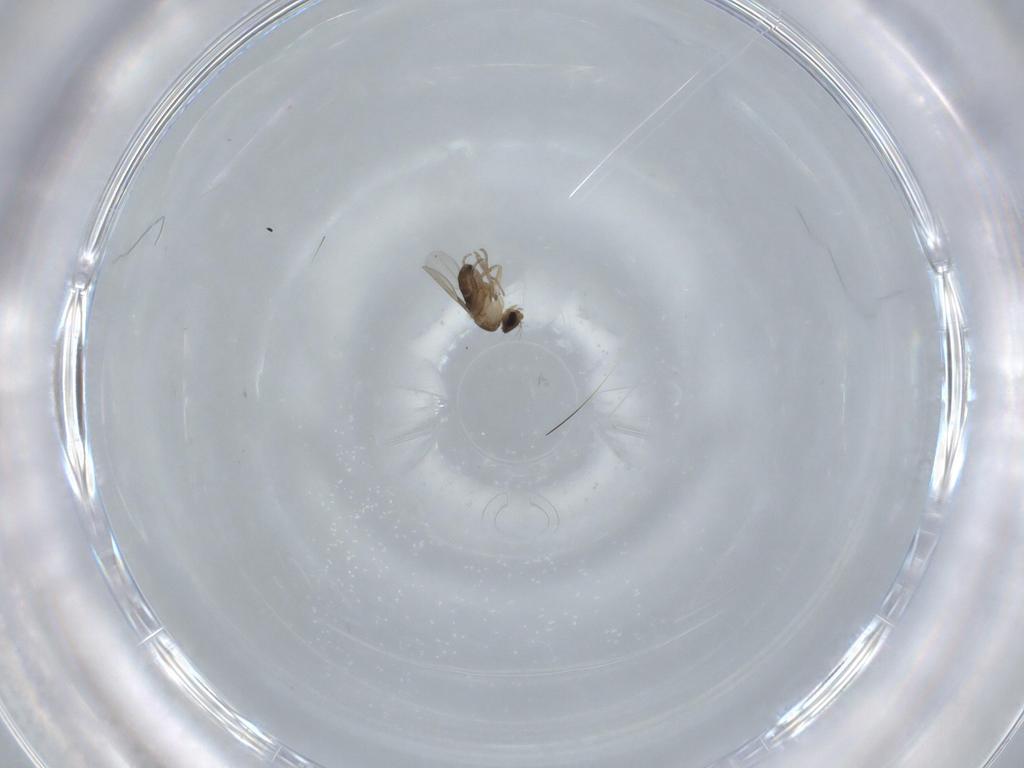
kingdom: Animalia
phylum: Arthropoda
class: Insecta
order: Diptera
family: Phoridae
